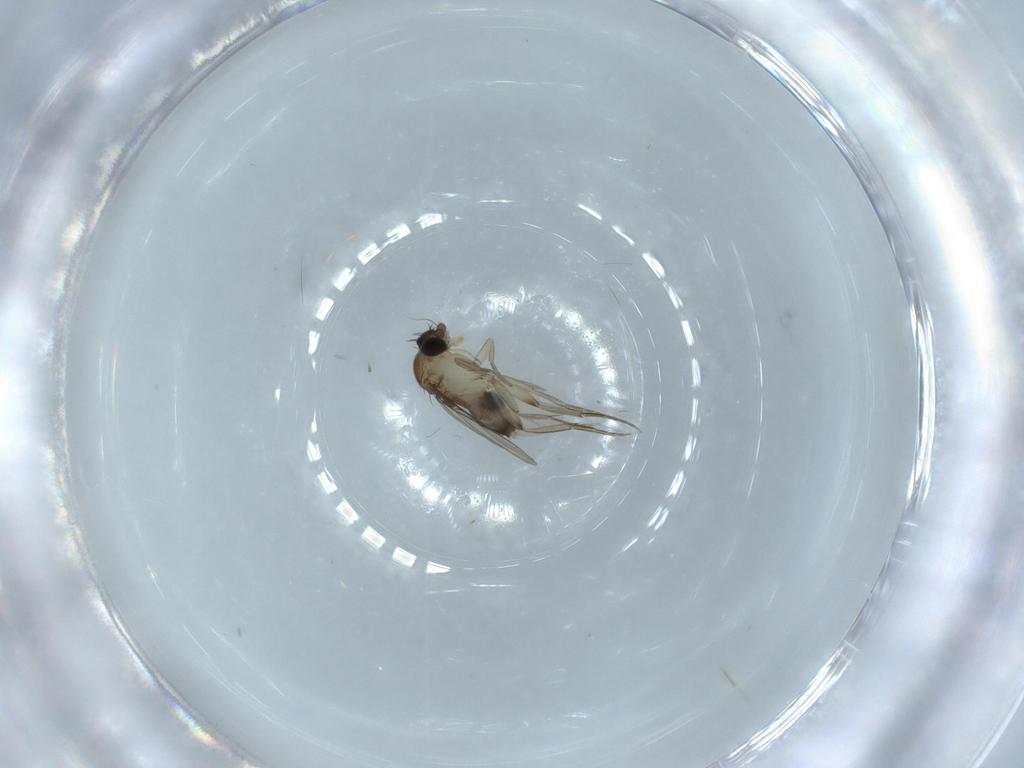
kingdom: Animalia
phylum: Arthropoda
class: Insecta
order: Diptera
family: Phoridae
